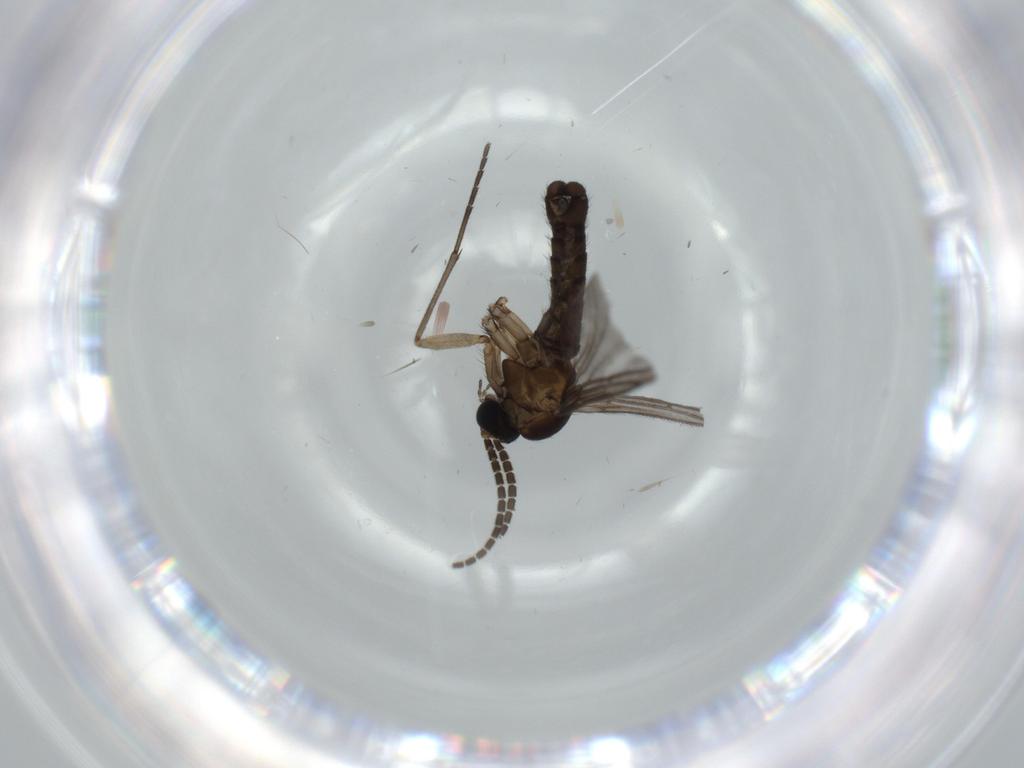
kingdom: Animalia
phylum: Arthropoda
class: Insecta
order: Diptera
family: Sciaridae
